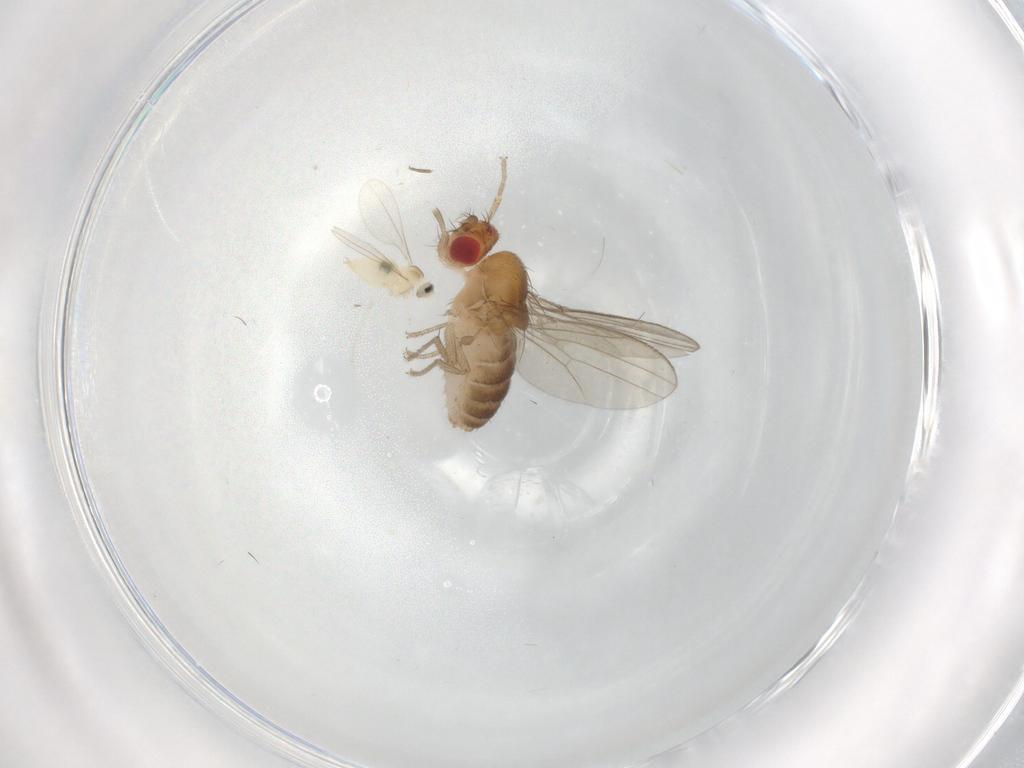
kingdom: Animalia
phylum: Arthropoda
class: Insecta
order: Diptera
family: Drosophilidae
